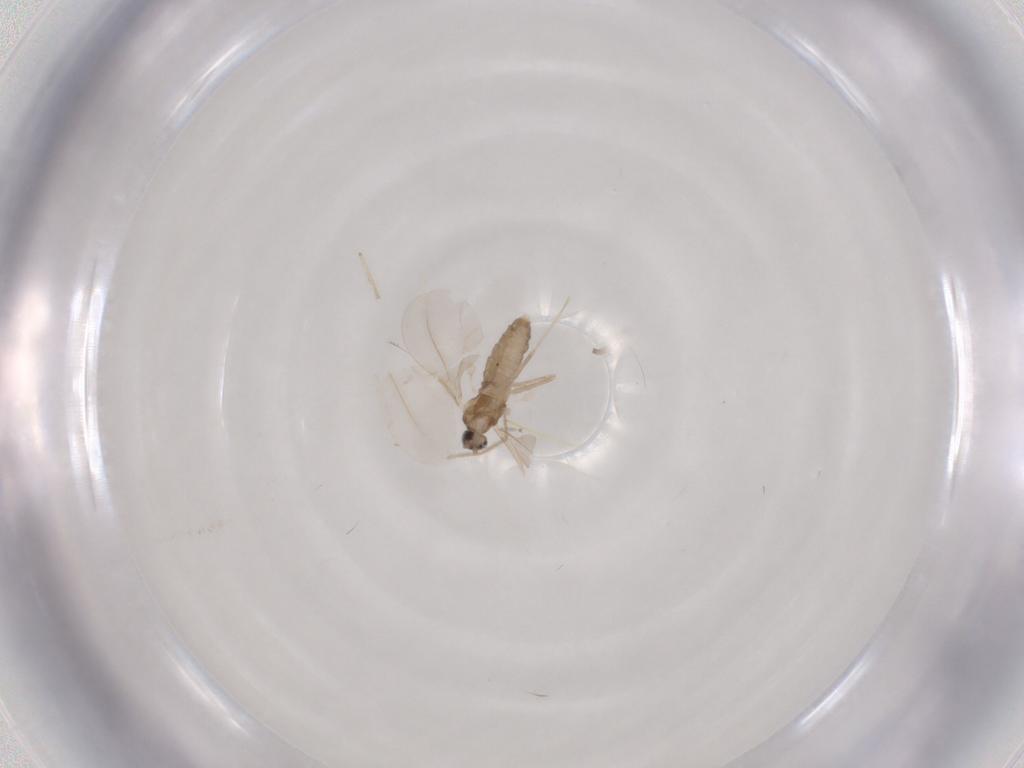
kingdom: Animalia
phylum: Arthropoda
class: Insecta
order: Diptera
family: Cecidomyiidae
